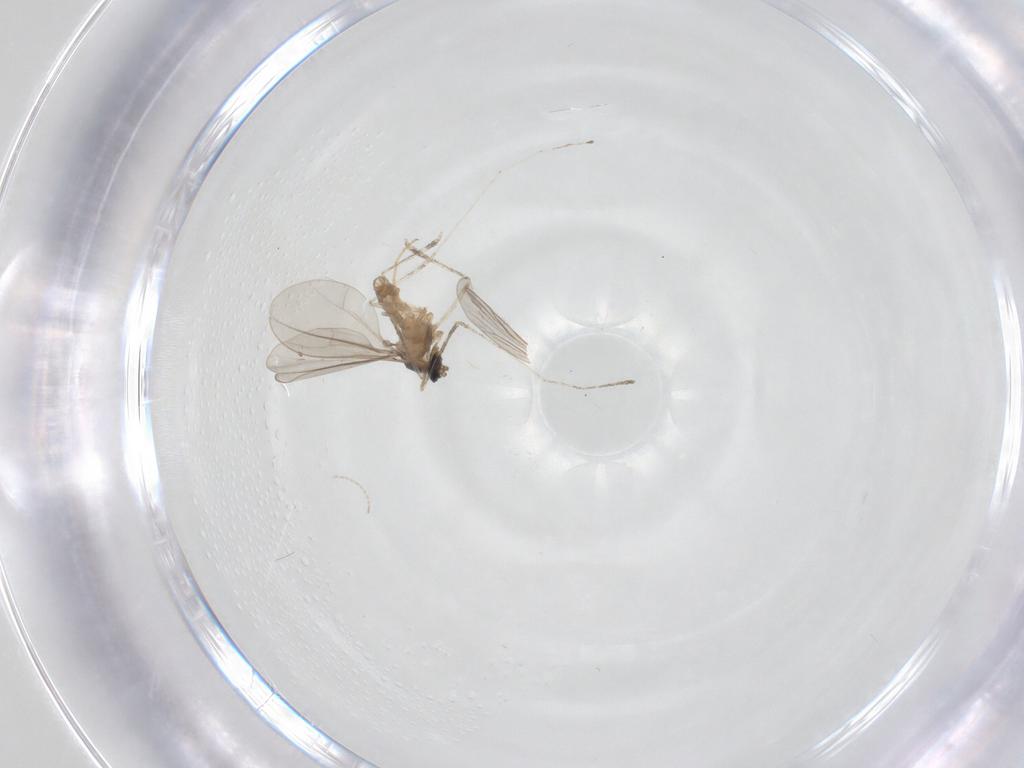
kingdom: Animalia
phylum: Arthropoda
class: Insecta
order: Diptera
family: Cecidomyiidae
